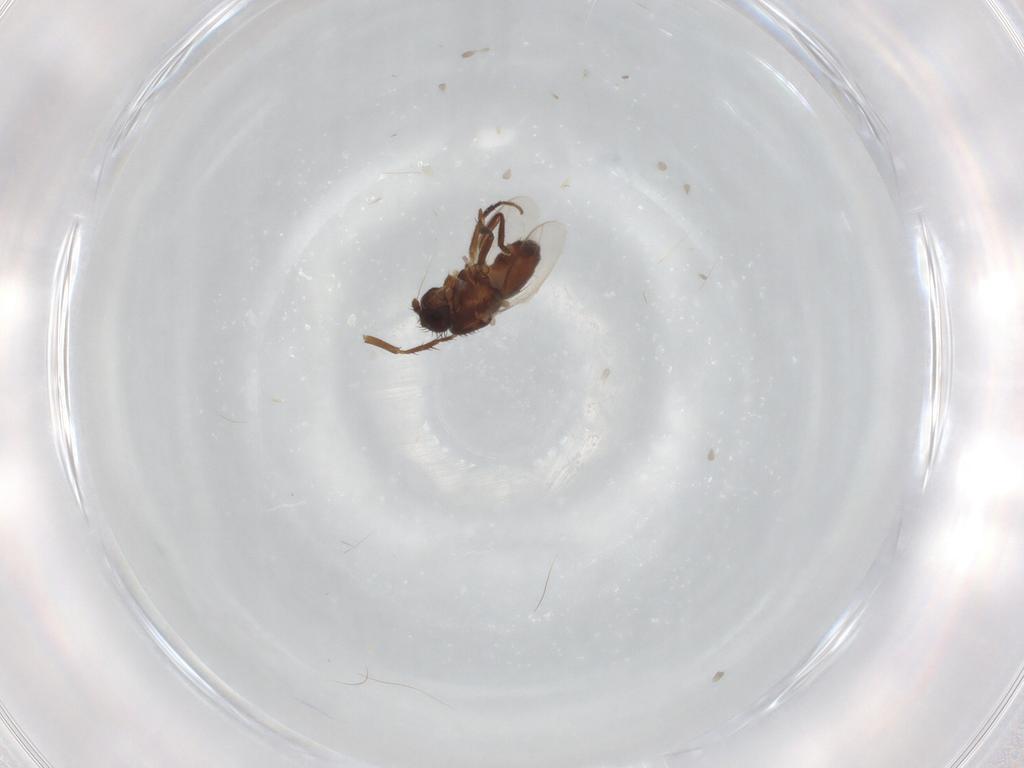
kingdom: Animalia
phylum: Arthropoda
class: Insecta
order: Diptera
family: Sphaeroceridae
